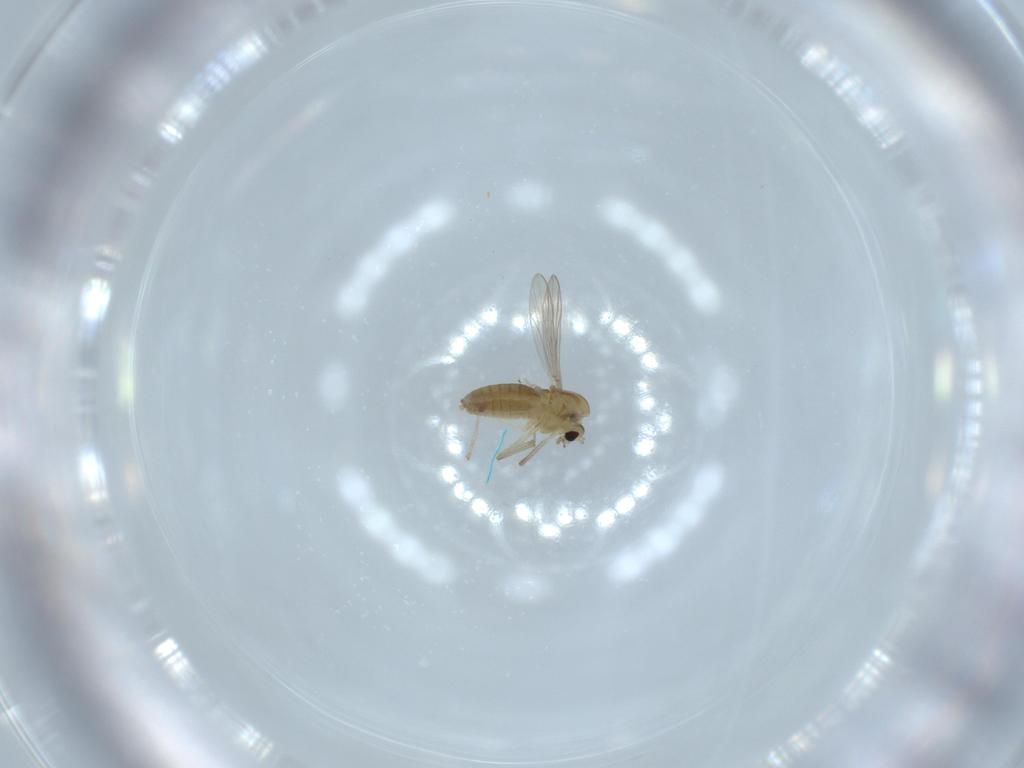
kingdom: Animalia
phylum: Arthropoda
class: Insecta
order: Diptera
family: Chironomidae
